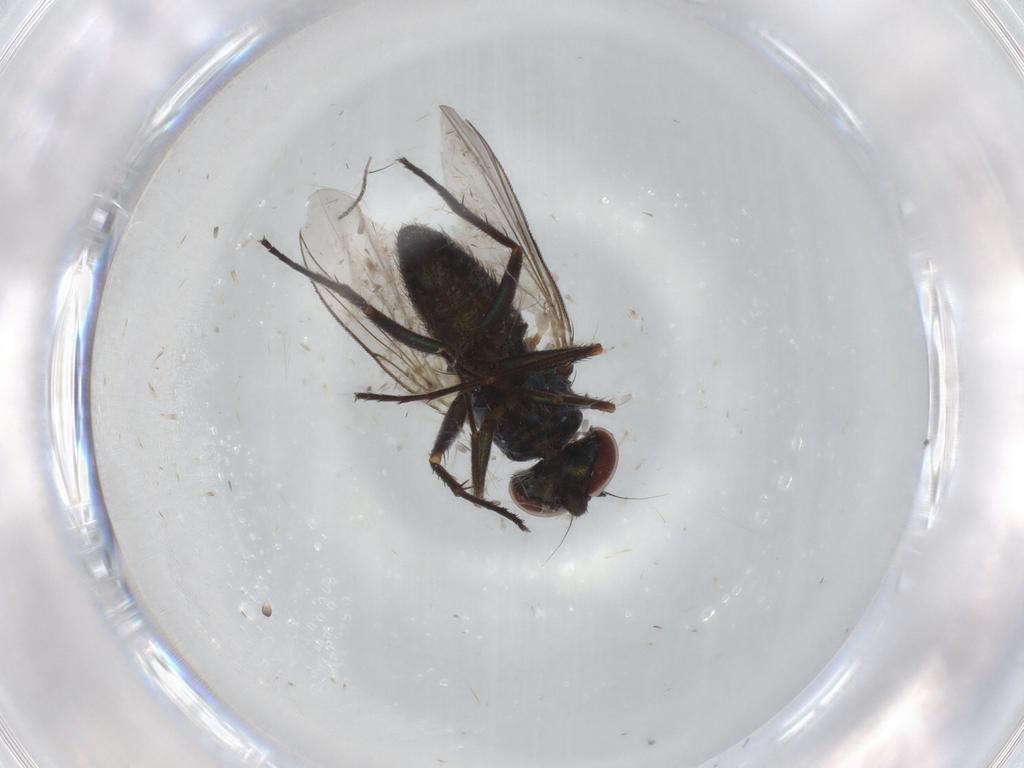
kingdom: Animalia
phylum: Arthropoda
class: Insecta
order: Diptera
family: Dolichopodidae
